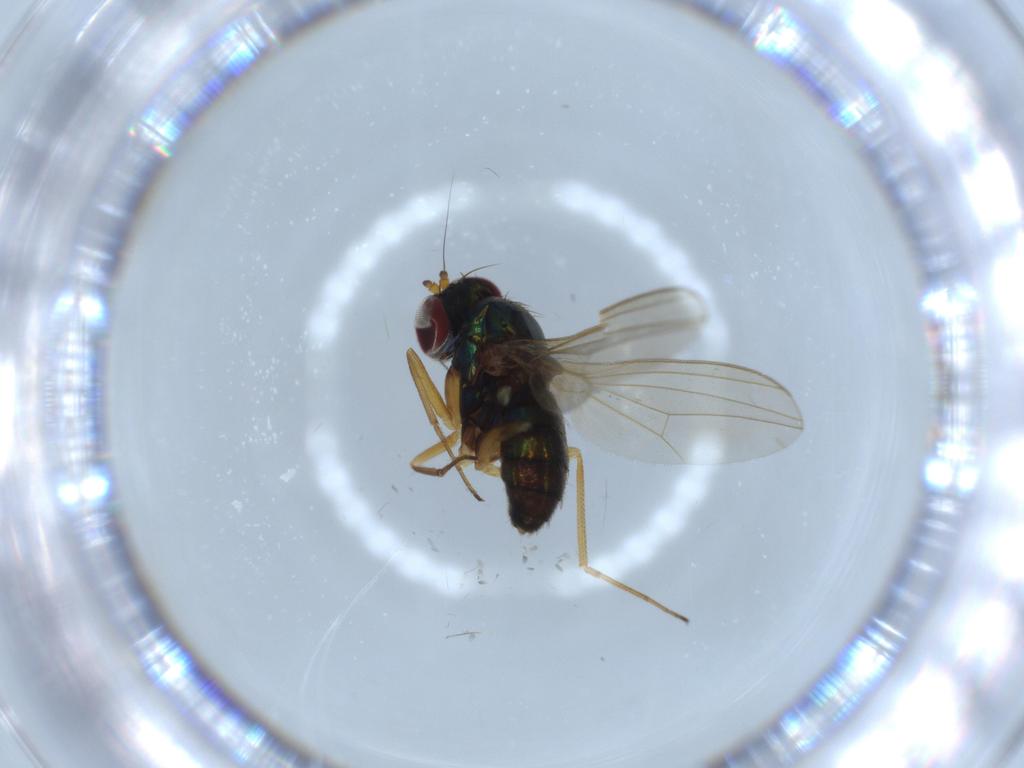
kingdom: Animalia
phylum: Arthropoda
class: Insecta
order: Diptera
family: Dolichopodidae
